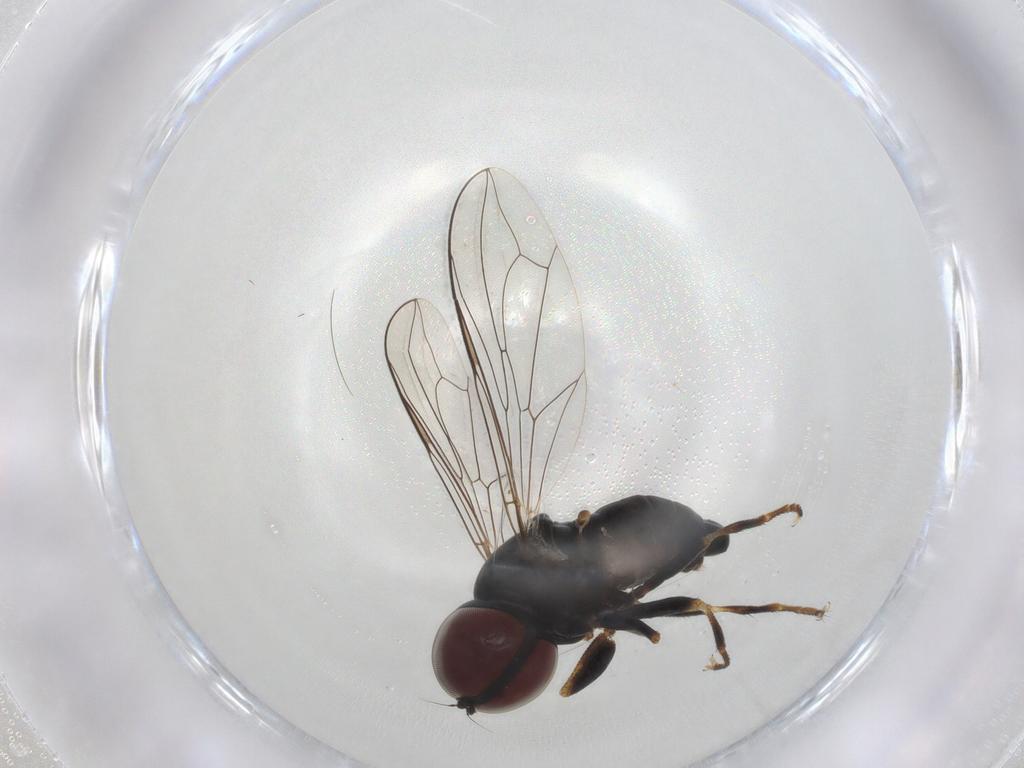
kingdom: Animalia
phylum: Arthropoda
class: Insecta
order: Diptera
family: Pipunculidae
